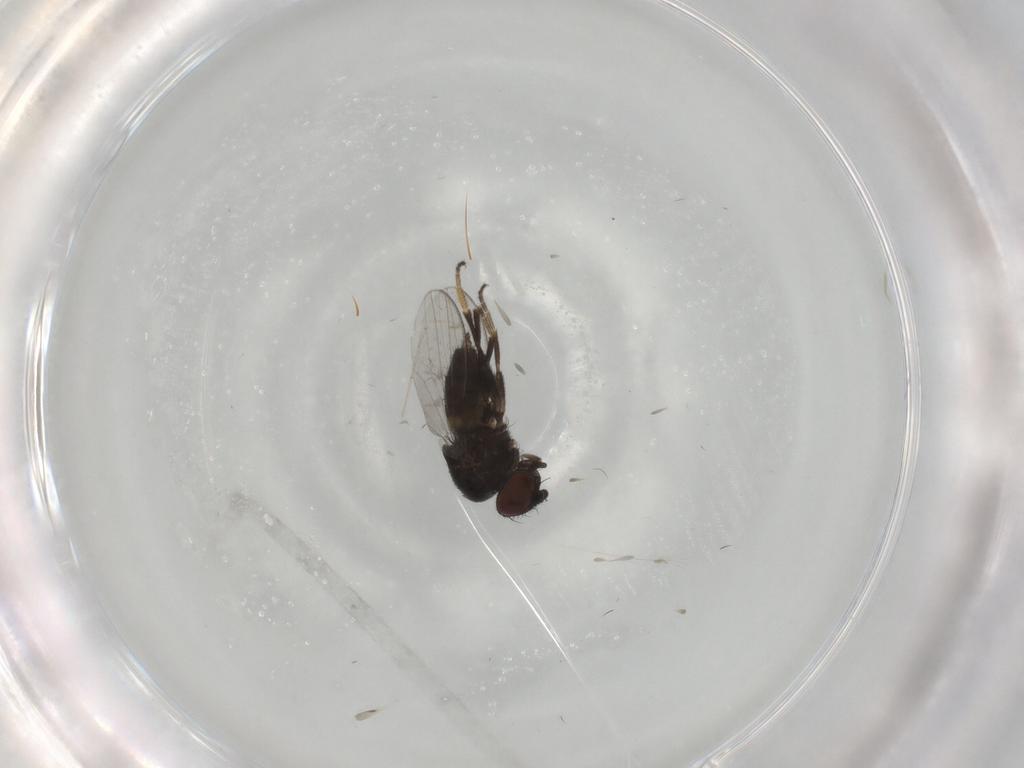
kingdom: Animalia
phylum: Arthropoda
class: Insecta
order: Diptera
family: Milichiidae
